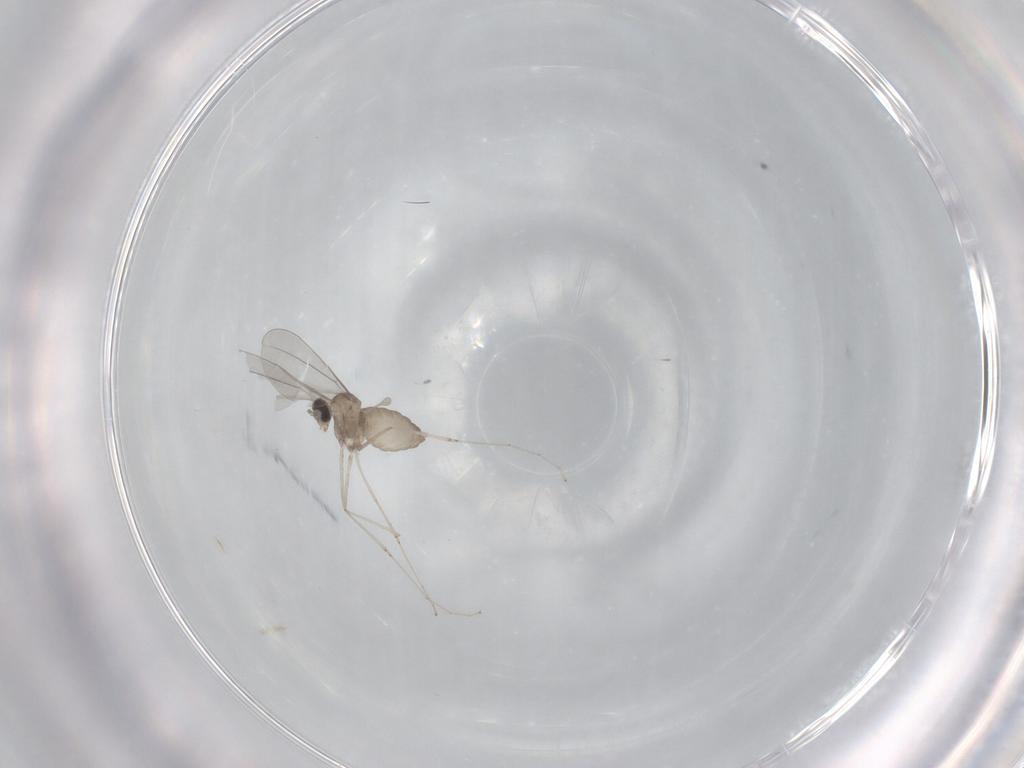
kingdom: Animalia
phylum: Arthropoda
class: Insecta
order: Diptera
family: Cecidomyiidae
